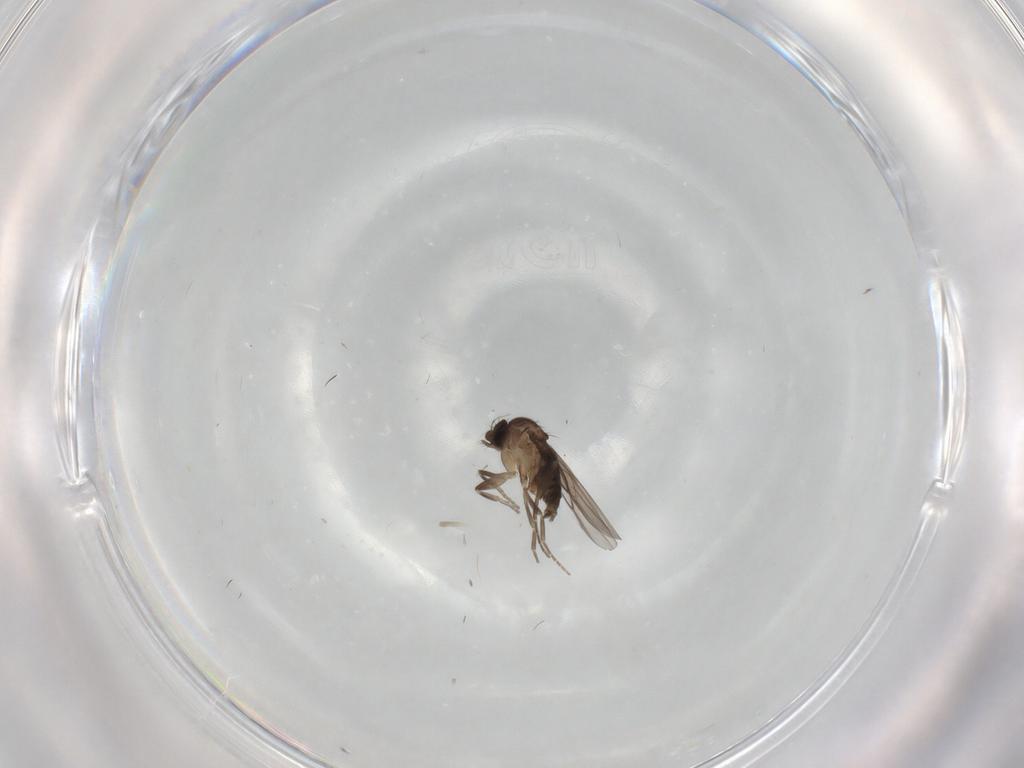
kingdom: Animalia
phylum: Arthropoda
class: Insecta
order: Diptera
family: Phoridae
